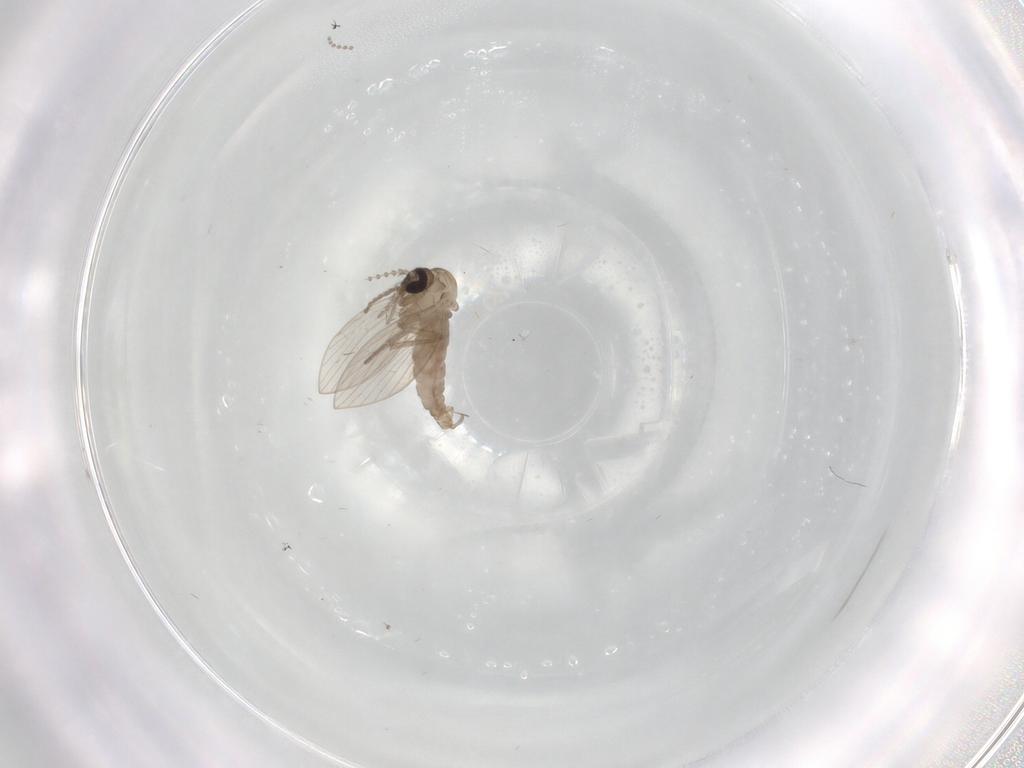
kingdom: Animalia
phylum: Arthropoda
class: Insecta
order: Diptera
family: Psychodidae
